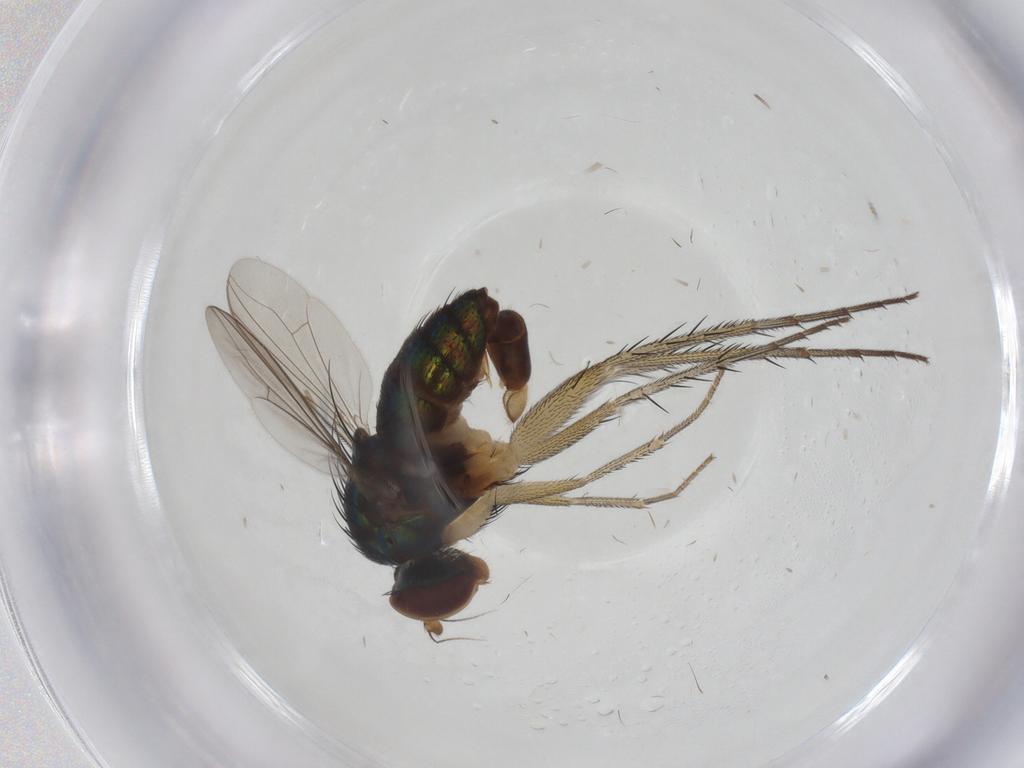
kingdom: Animalia
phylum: Arthropoda
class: Insecta
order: Diptera
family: Dolichopodidae
